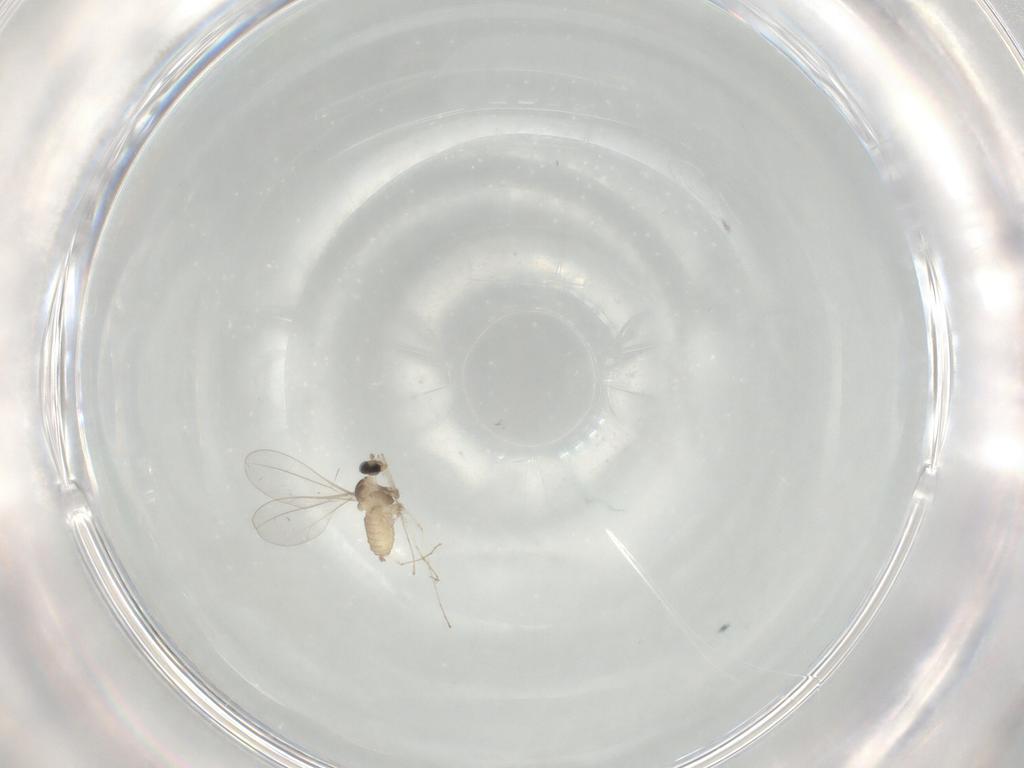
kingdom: Animalia
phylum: Arthropoda
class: Insecta
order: Diptera
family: Cecidomyiidae
